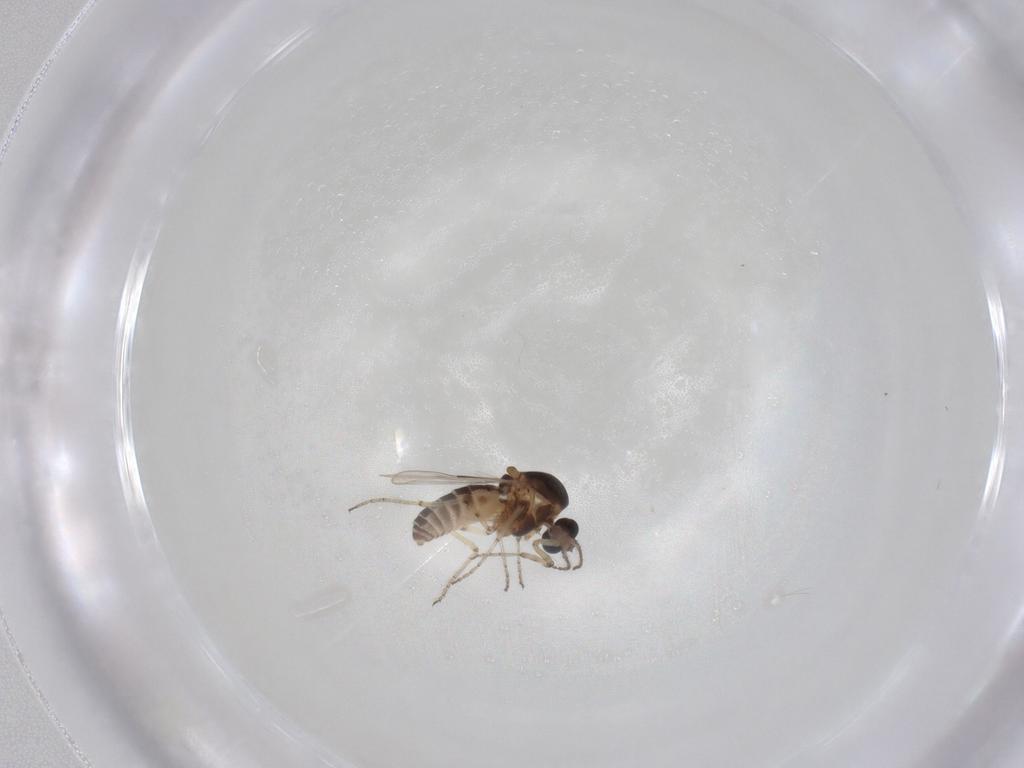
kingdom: Animalia
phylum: Arthropoda
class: Insecta
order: Diptera
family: Ceratopogonidae
